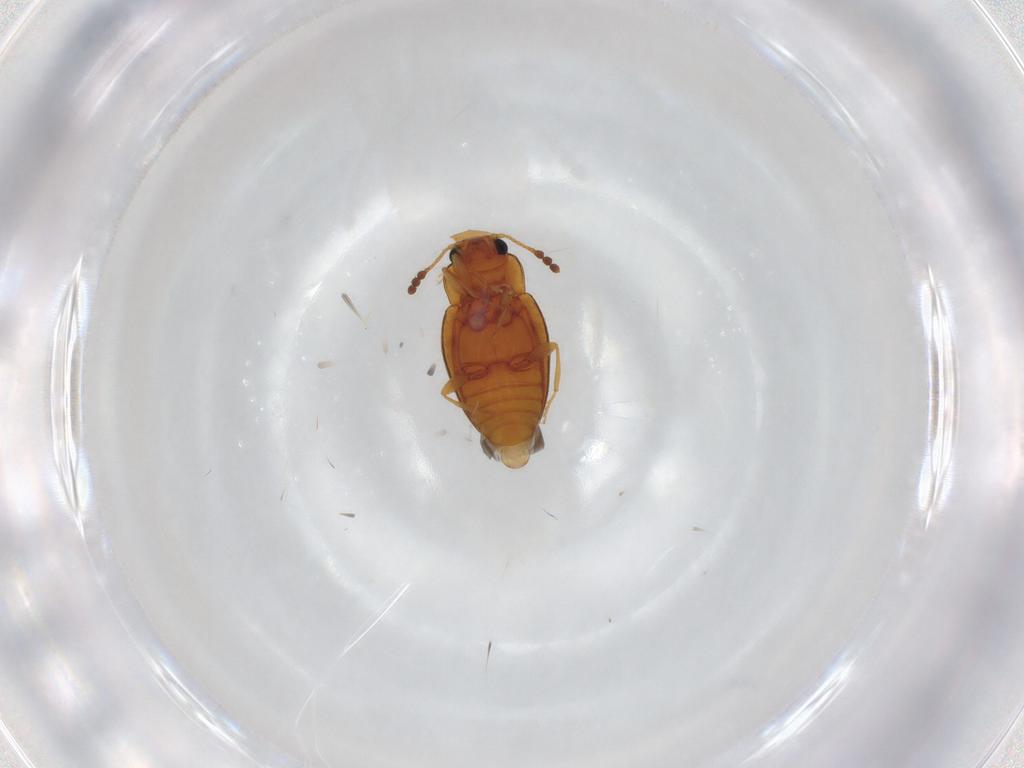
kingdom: Animalia
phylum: Arthropoda
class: Insecta
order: Coleoptera
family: Erotylidae
